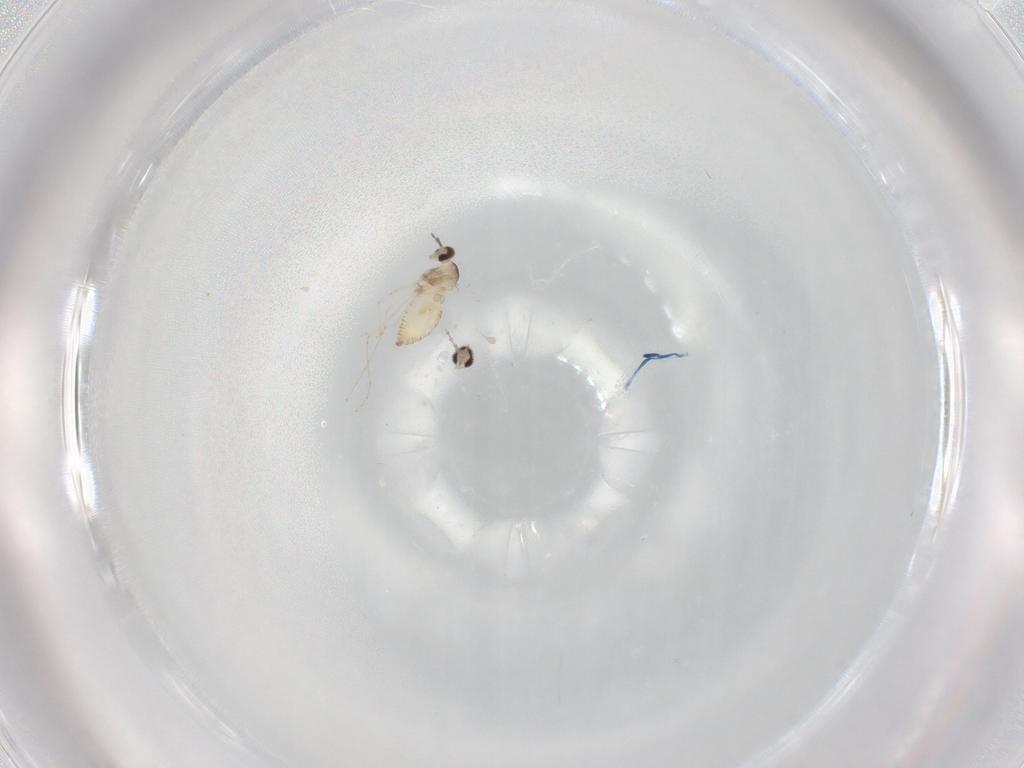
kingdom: Animalia
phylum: Arthropoda
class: Insecta
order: Diptera
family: Cecidomyiidae
